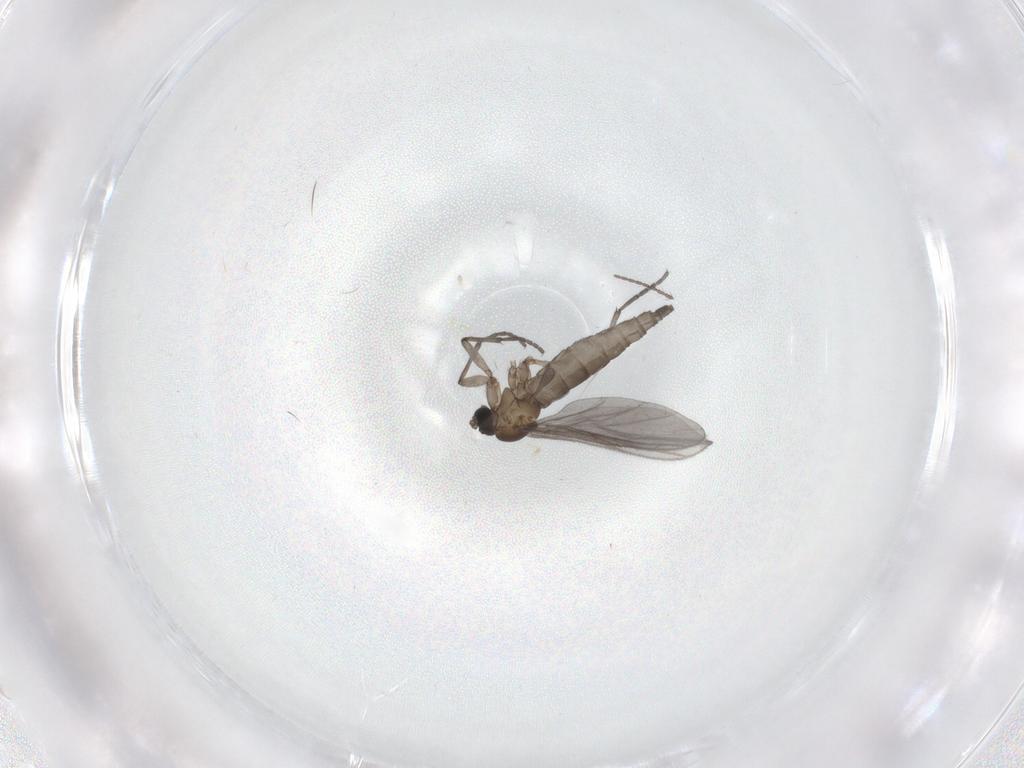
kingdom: Animalia
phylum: Arthropoda
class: Insecta
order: Diptera
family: Sciaridae
